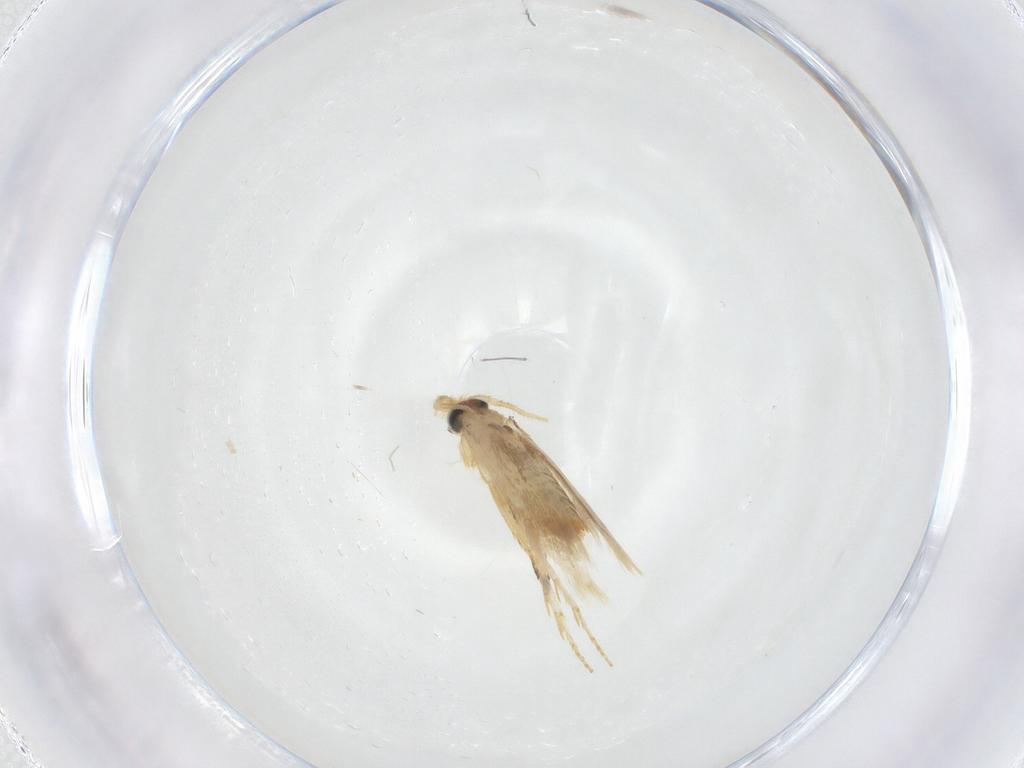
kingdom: Animalia
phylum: Arthropoda
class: Insecta
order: Lepidoptera
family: Nepticulidae
